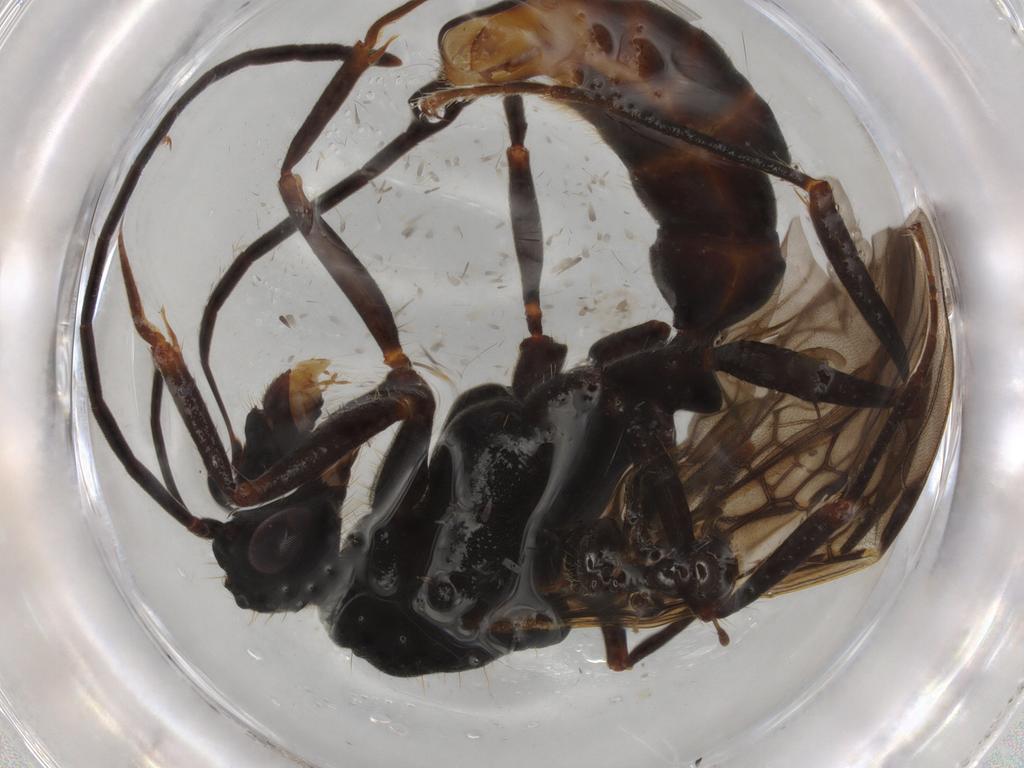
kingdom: Animalia
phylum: Arthropoda
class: Insecta
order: Hymenoptera
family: Formicidae
